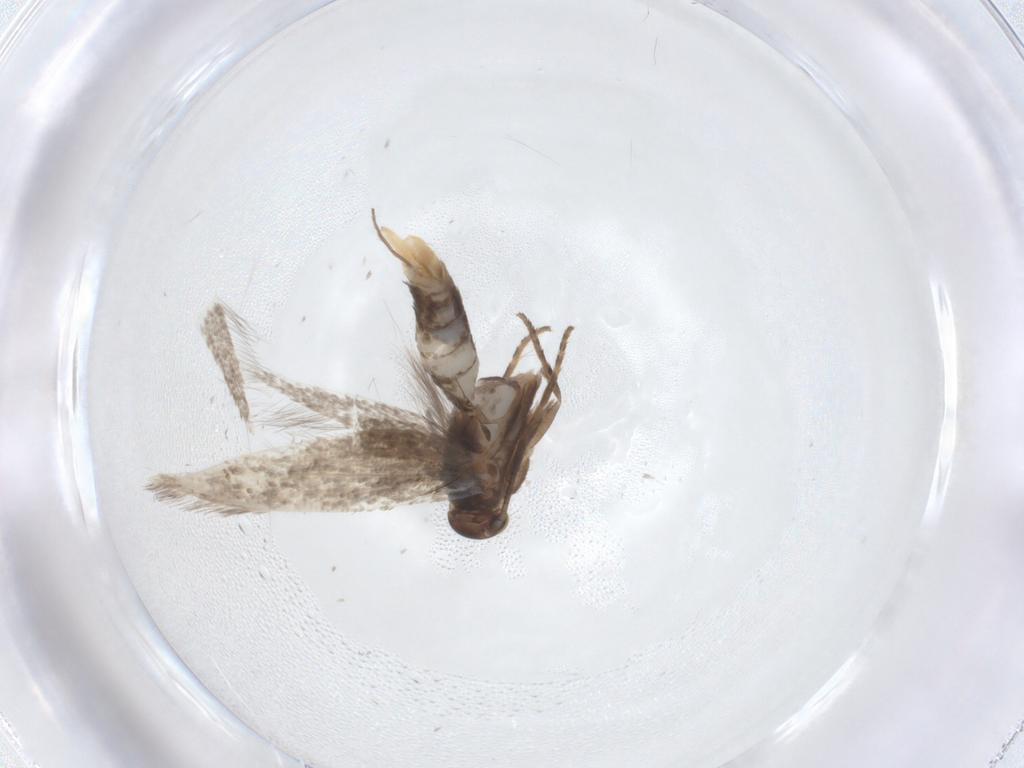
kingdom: Animalia
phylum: Arthropoda
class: Insecta
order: Lepidoptera
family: Elachistidae
